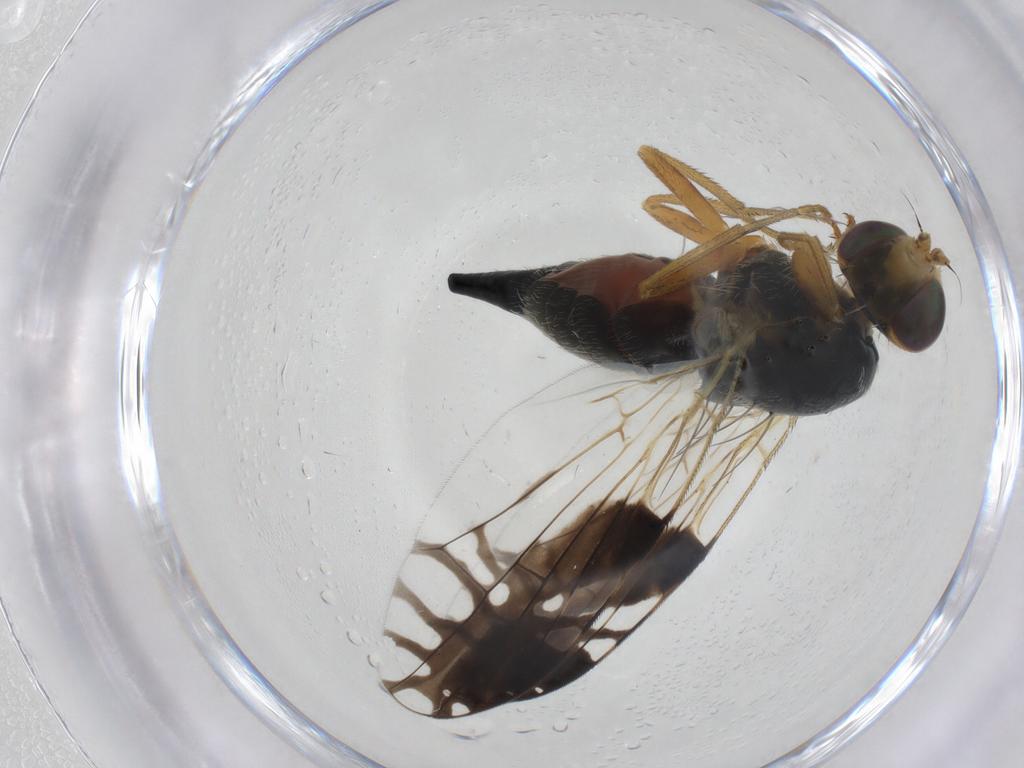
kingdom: Animalia
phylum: Arthropoda
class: Insecta
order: Diptera
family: Tephritidae
